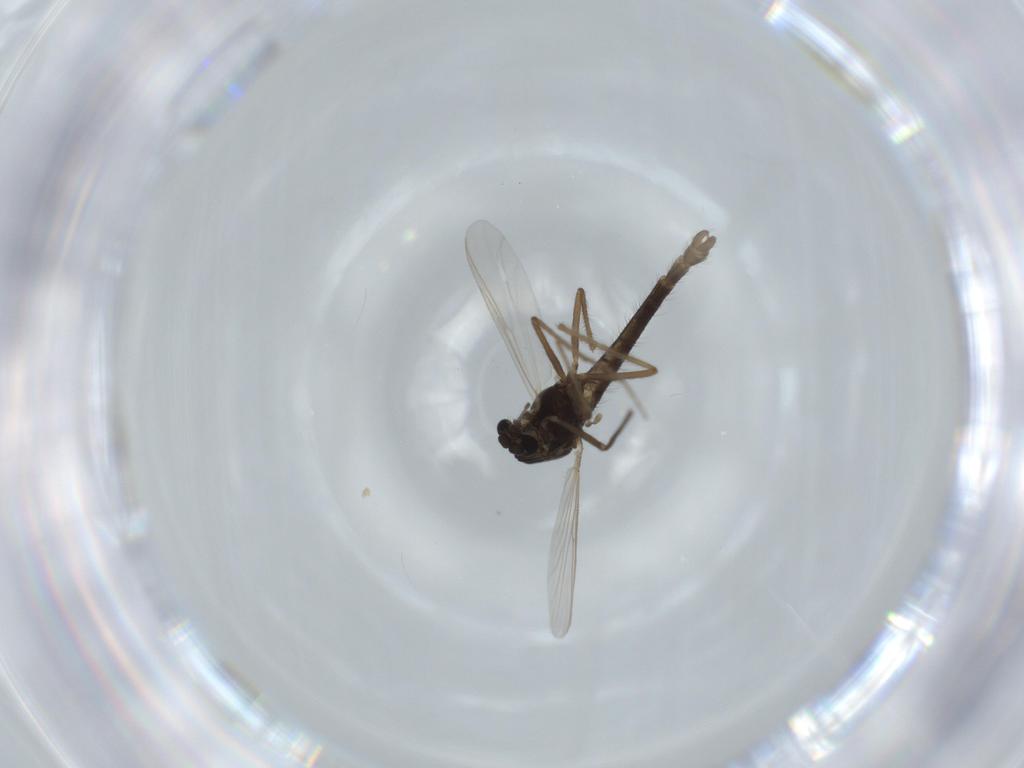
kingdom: Animalia
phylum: Arthropoda
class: Insecta
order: Diptera
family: Chironomidae
